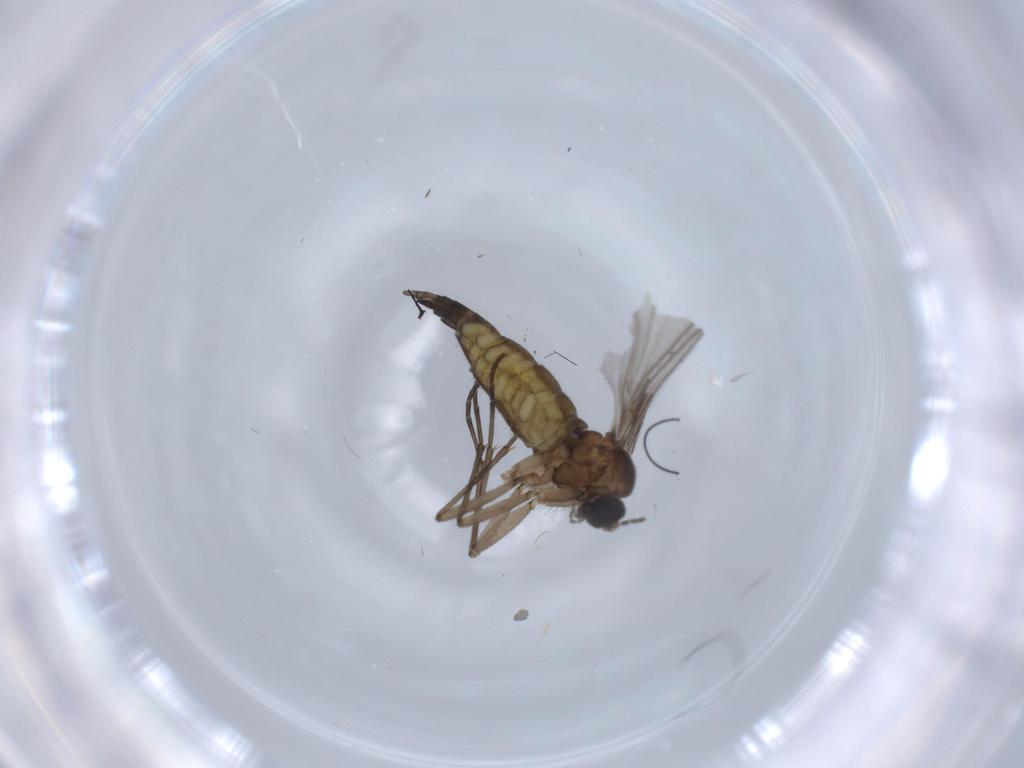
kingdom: Animalia
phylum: Arthropoda
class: Insecta
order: Diptera
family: Sciaridae
